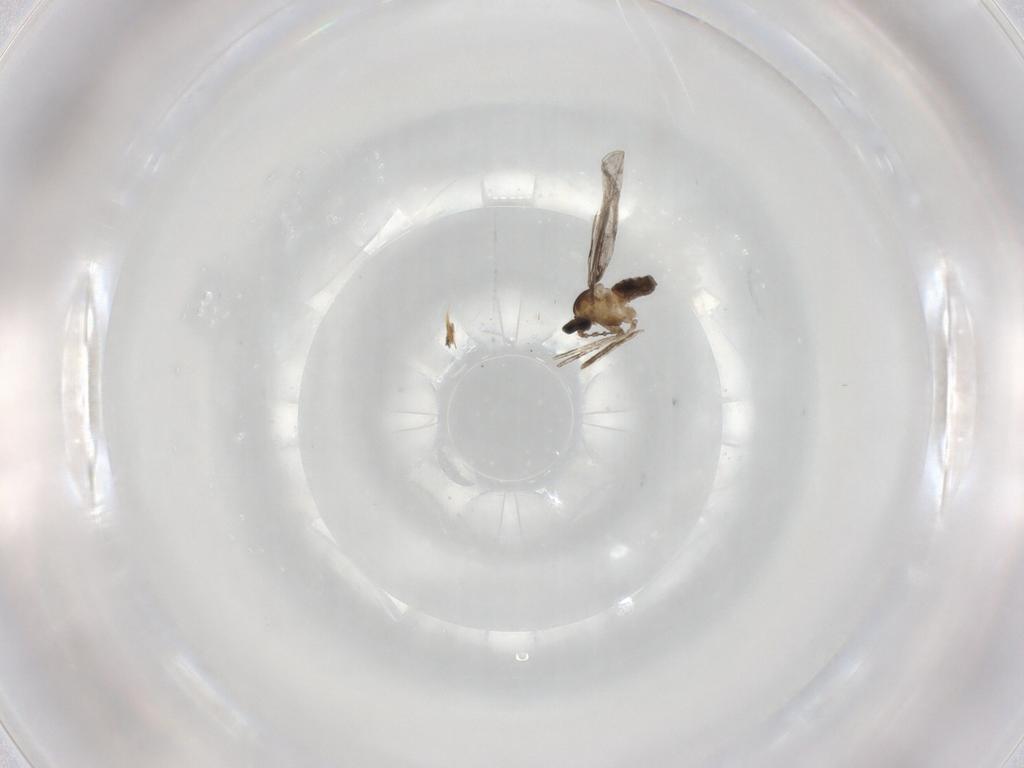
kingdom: Animalia
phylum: Arthropoda
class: Insecta
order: Diptera
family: Cecidomyiidae
